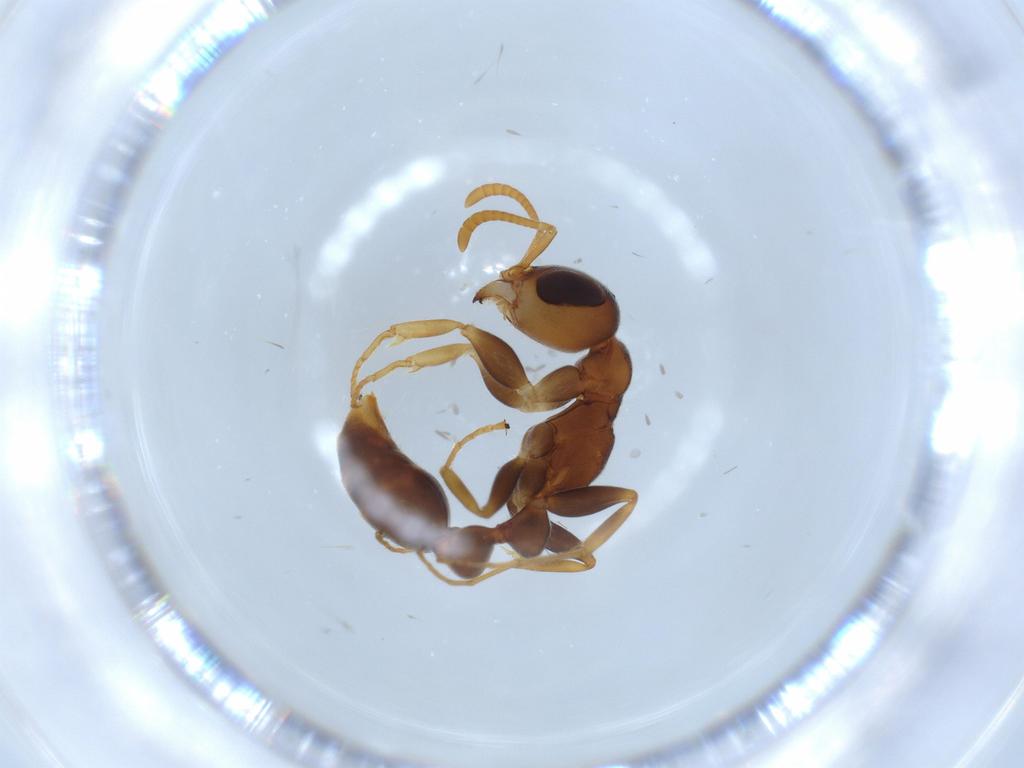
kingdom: Animalia
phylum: Arthropoda
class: Insecta
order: Hymenoptera
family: Formicidae
